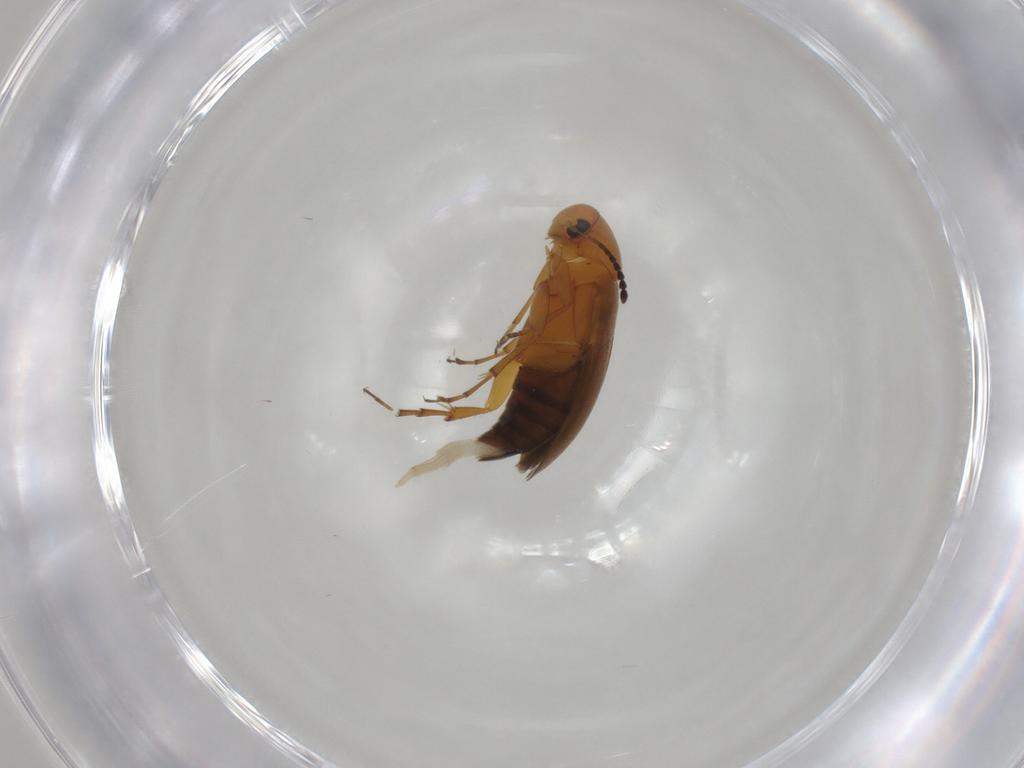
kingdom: Animalia
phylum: Arthropoda
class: Insecta
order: Coleoptera
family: Scraptiidae
